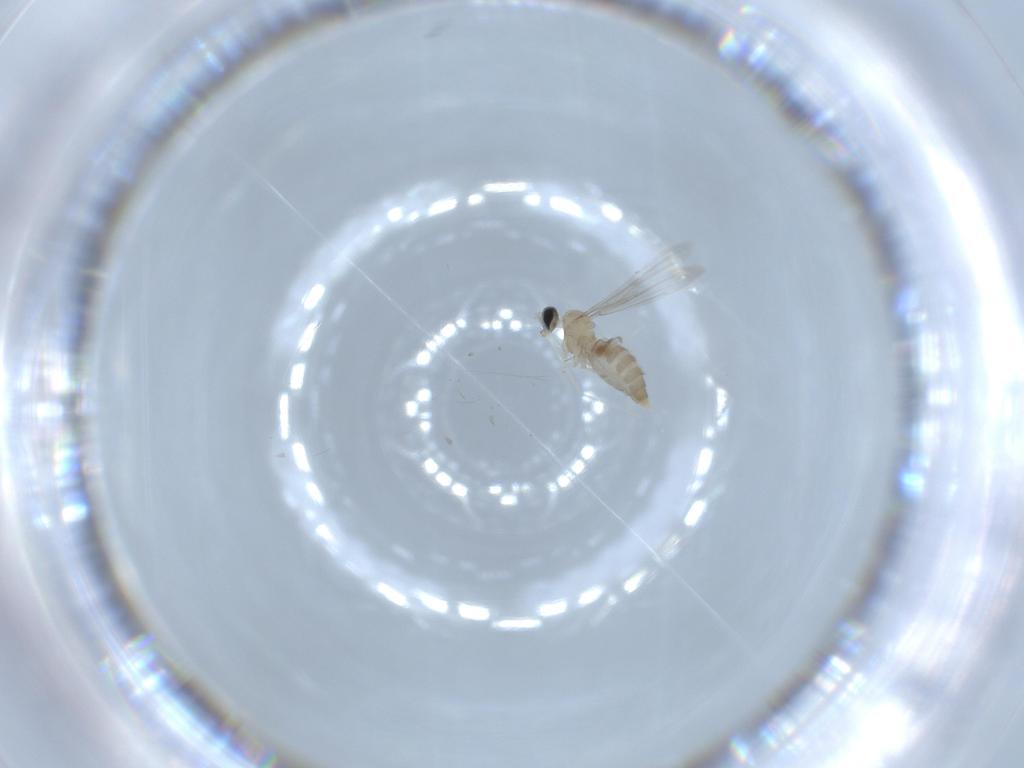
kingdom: Animalia
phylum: Arthropoda
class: Insecta
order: Diptera
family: Cecidomyiidae
